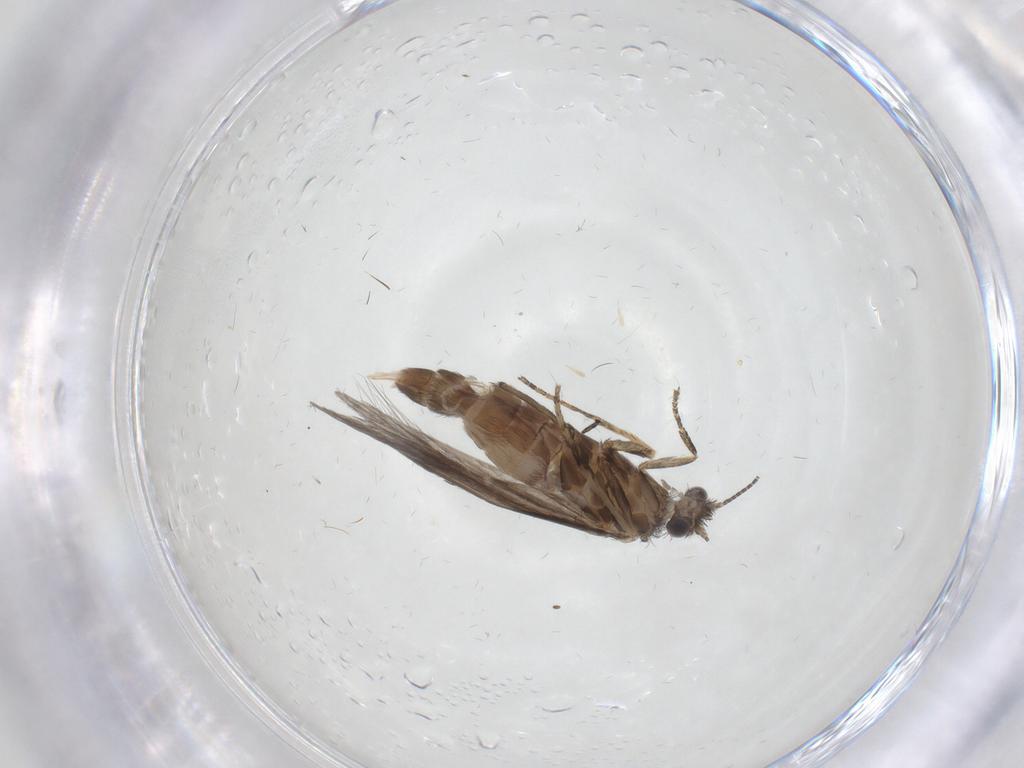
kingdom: Animalia
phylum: Arthropoda
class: Insecta
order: Trichoptera
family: Hydroptilidae
